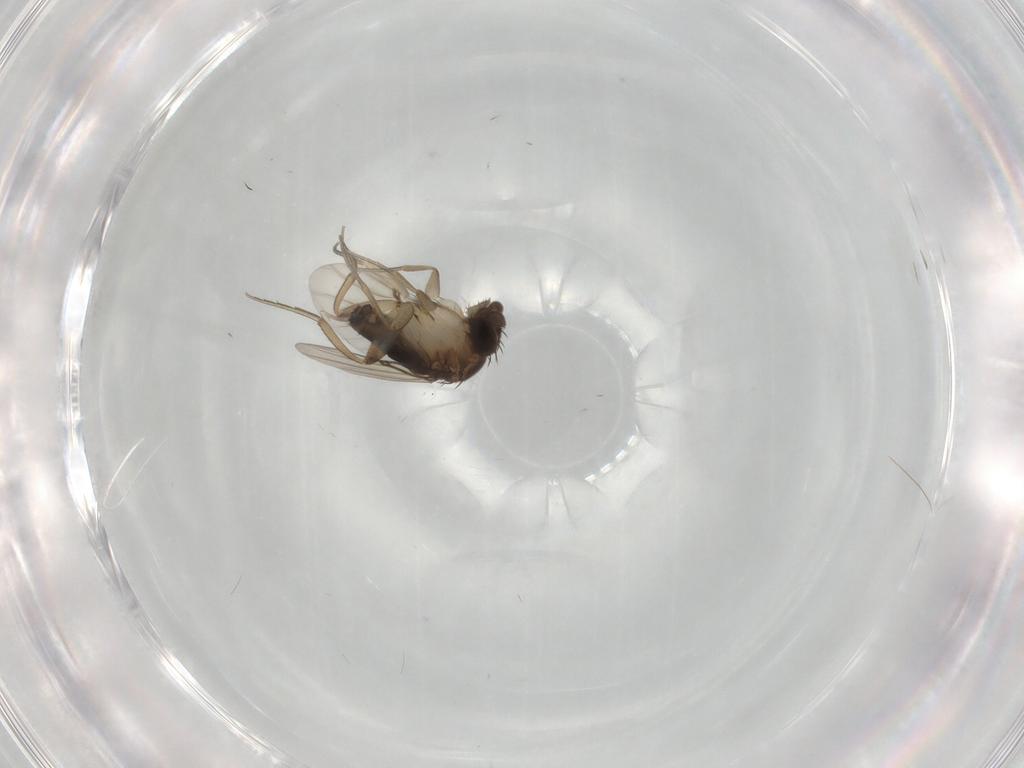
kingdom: Animalia
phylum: Arthropoda
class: Insecta
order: Diptera
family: Phoridae
